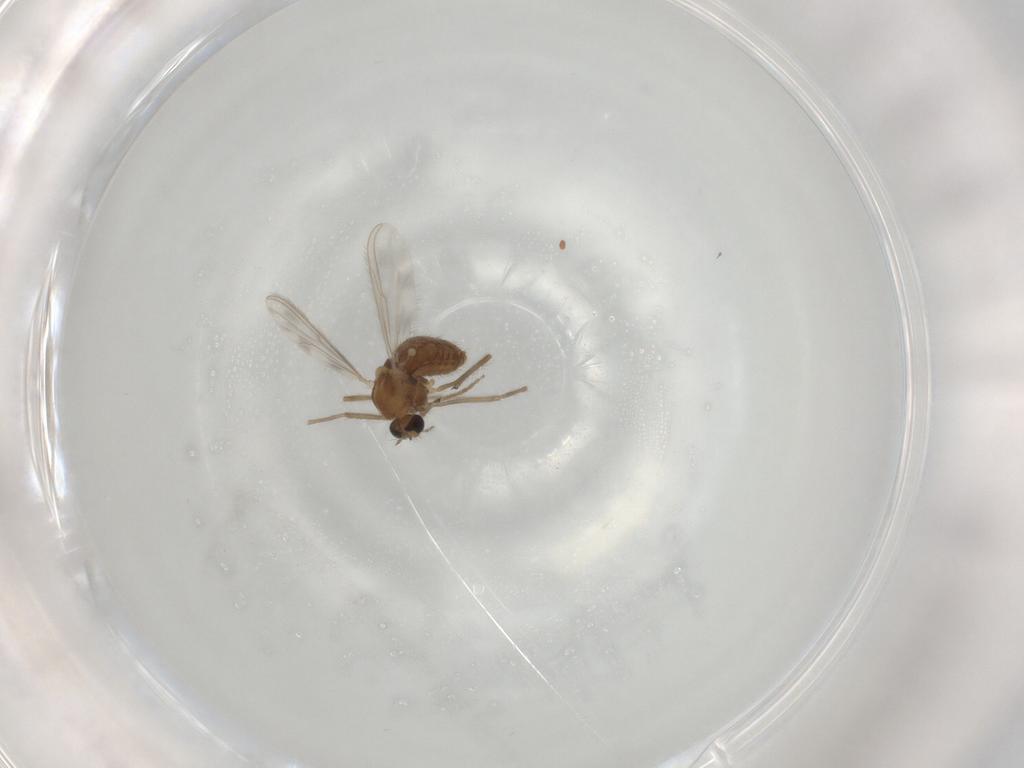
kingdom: Animalia
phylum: Arthropoda
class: Insecta
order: Diptera
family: Chironomidae
